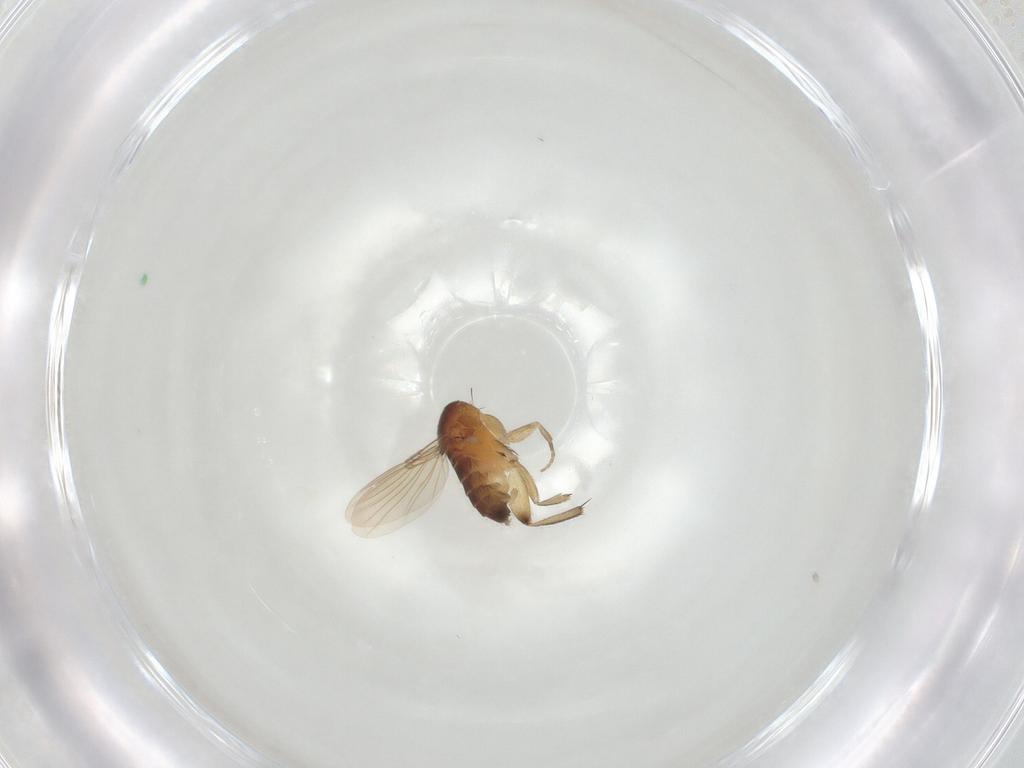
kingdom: Animalia
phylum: Arthropoda
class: Insecta
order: Diptera
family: Phoridae
